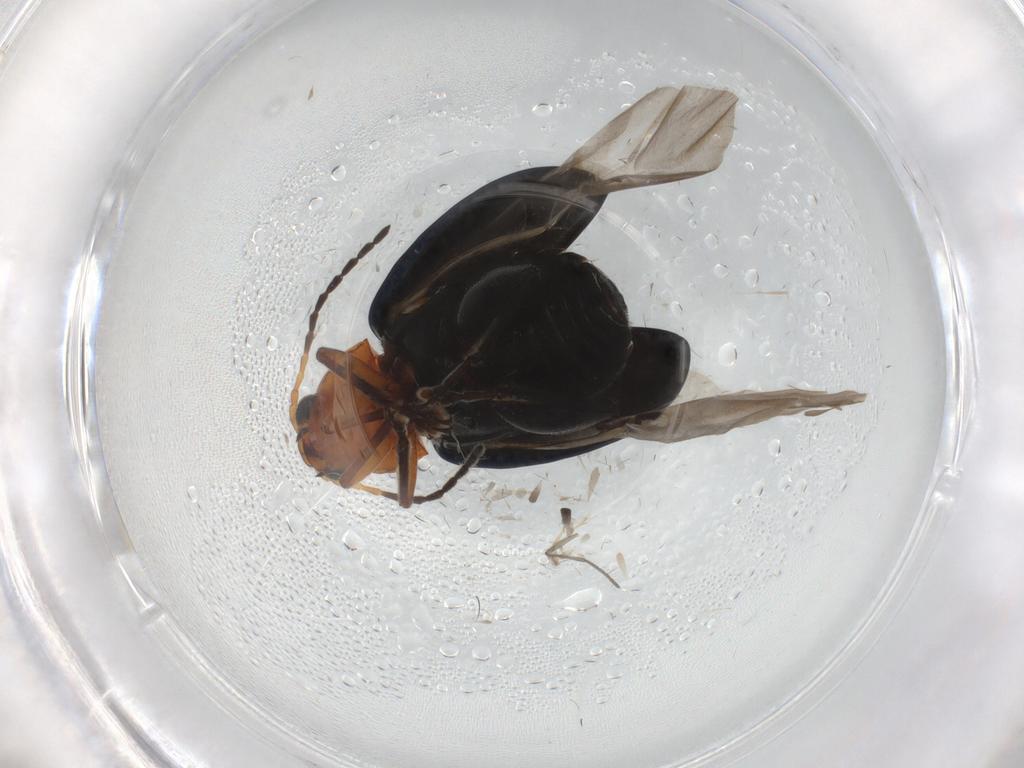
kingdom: Animalia
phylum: Arthropoda
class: Insecta
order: Coleoptera
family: Chrysomelidae
